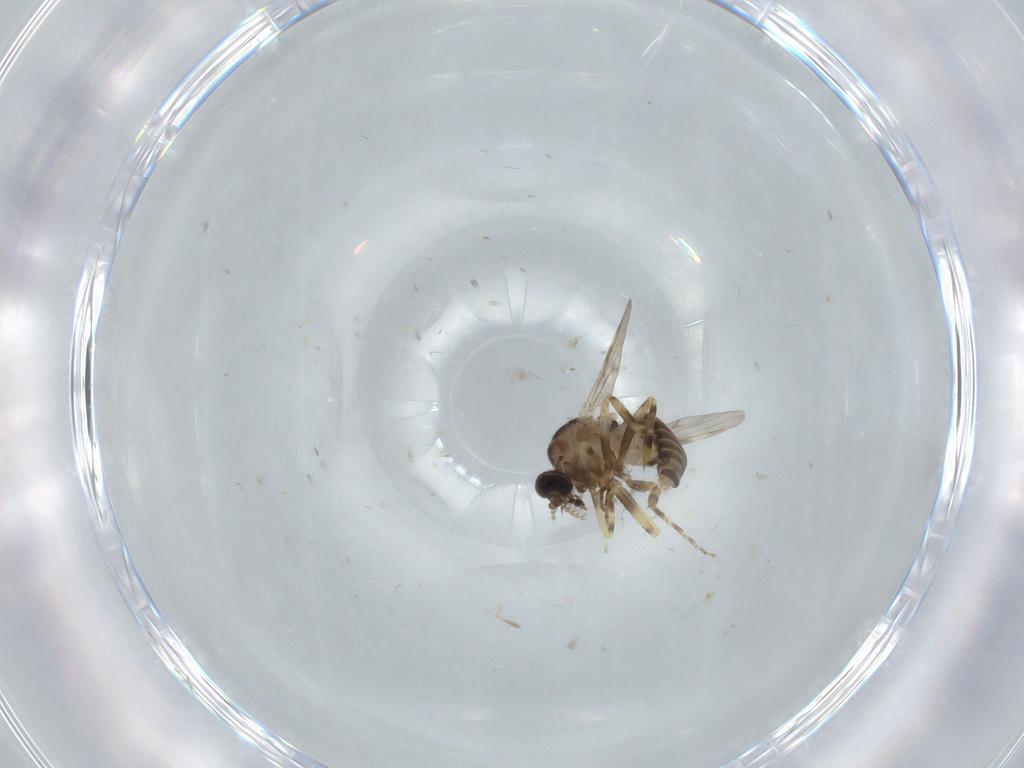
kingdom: Animalia
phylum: Arthropoda
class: Insecta
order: Diptera
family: Ceratopogonidae
